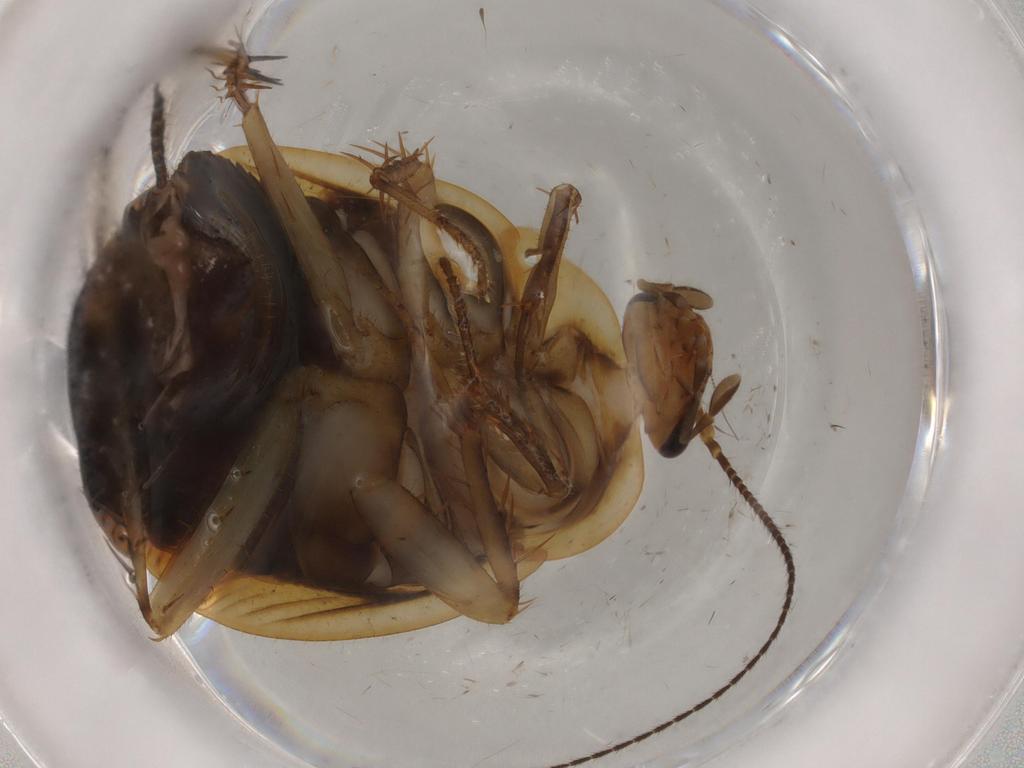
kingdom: Animalia
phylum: Arthropoda
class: Insecta
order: Blattodea
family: Ectobiidae
